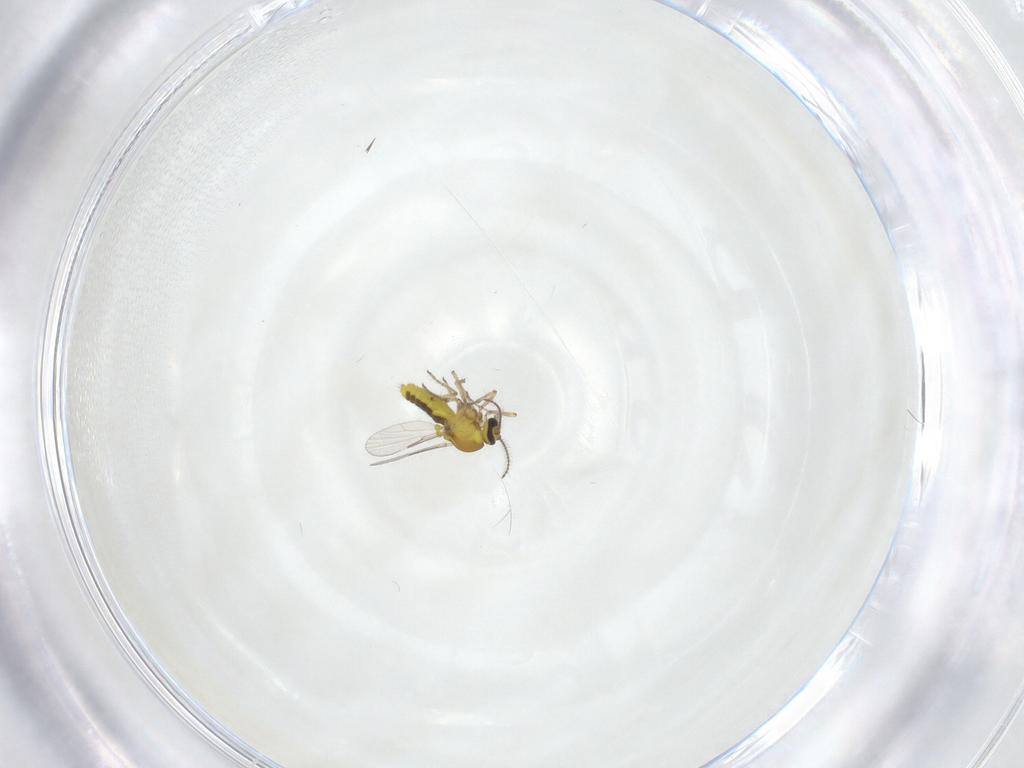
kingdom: Animalia
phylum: Arthropoda
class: Insecta
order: Diptera
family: Ceratopogonidae
